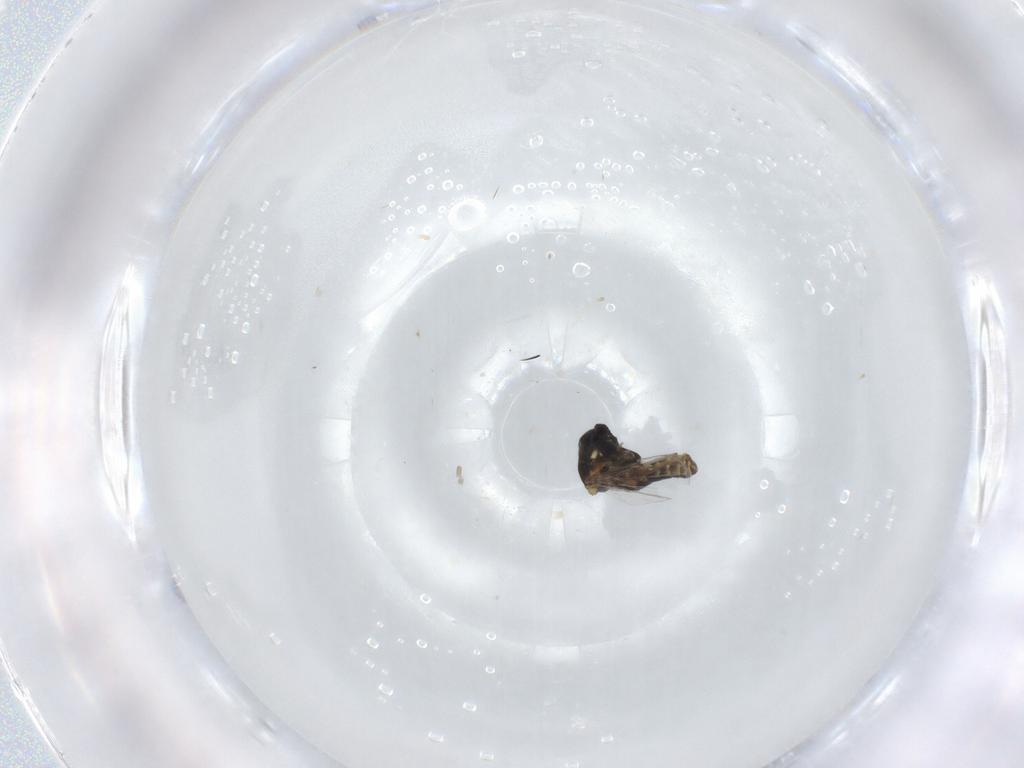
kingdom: Animalia
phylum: Arthropoda
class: Insecta
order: Diptera
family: Ceratopogonidae
